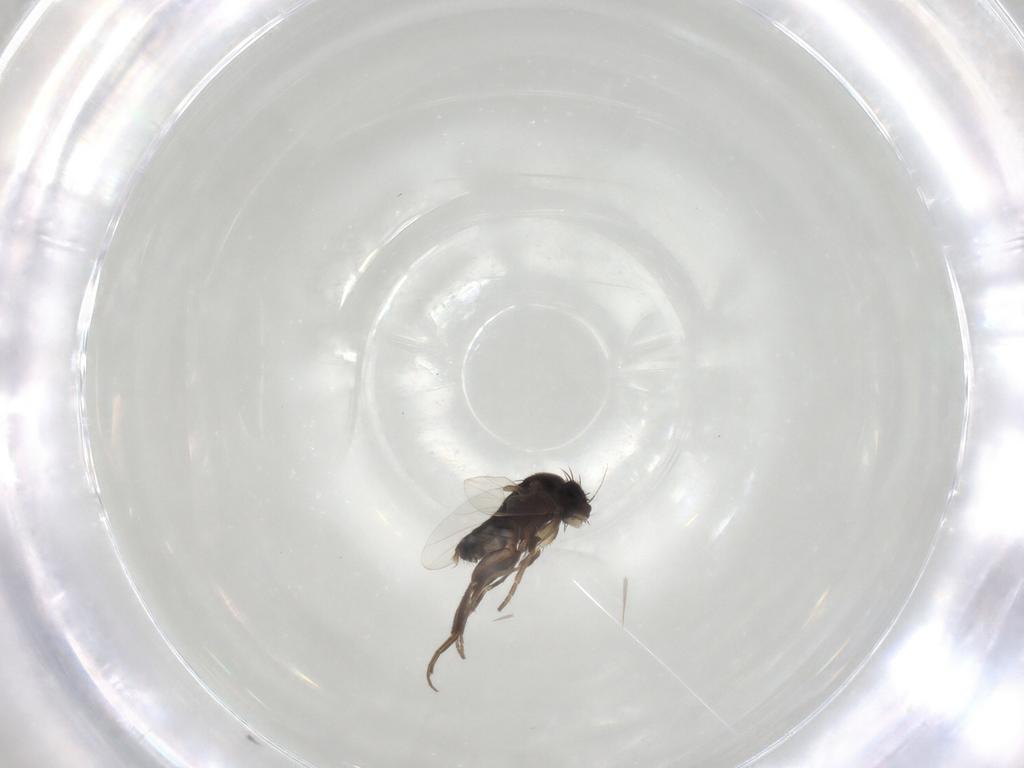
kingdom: Animalia
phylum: Arthropoda
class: Insecta
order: Diptera
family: Phoridae
